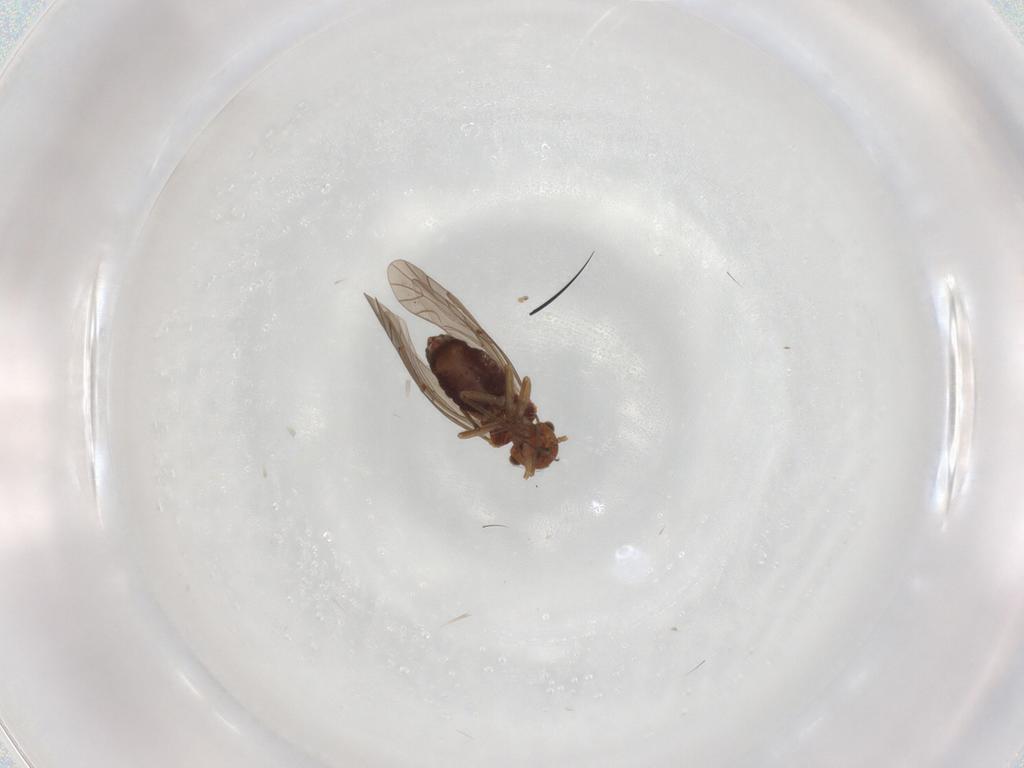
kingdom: Animalia
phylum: Arthropoda
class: Insecta
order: Psocodea
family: Lachesillidae
